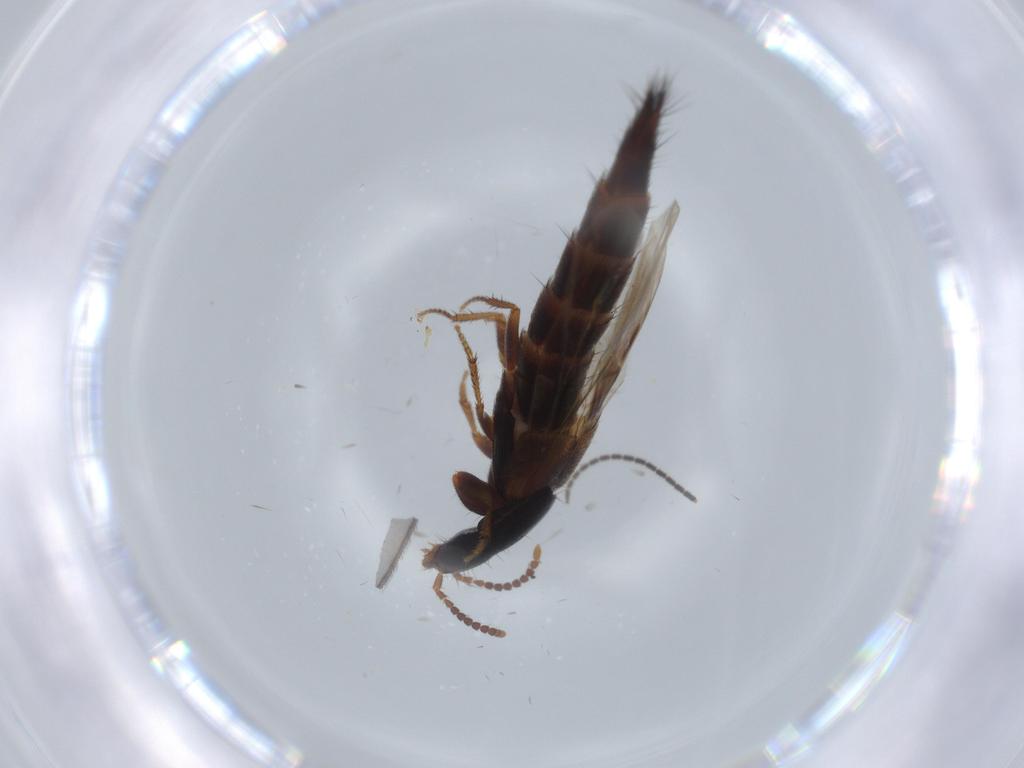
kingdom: Animalia
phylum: Arthropoda
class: Insecta
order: Coleoptera
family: Staphylinidae
